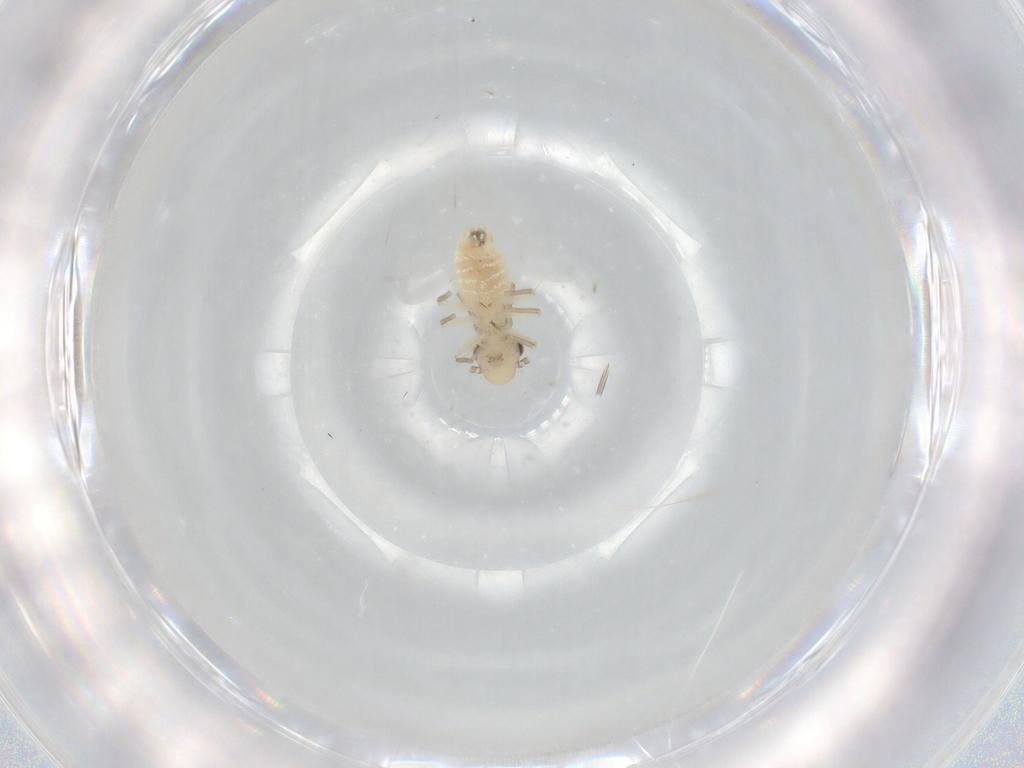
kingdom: Animalia
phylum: Arthropoda
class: Insecta
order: Psocodea
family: Caeciliusidae
